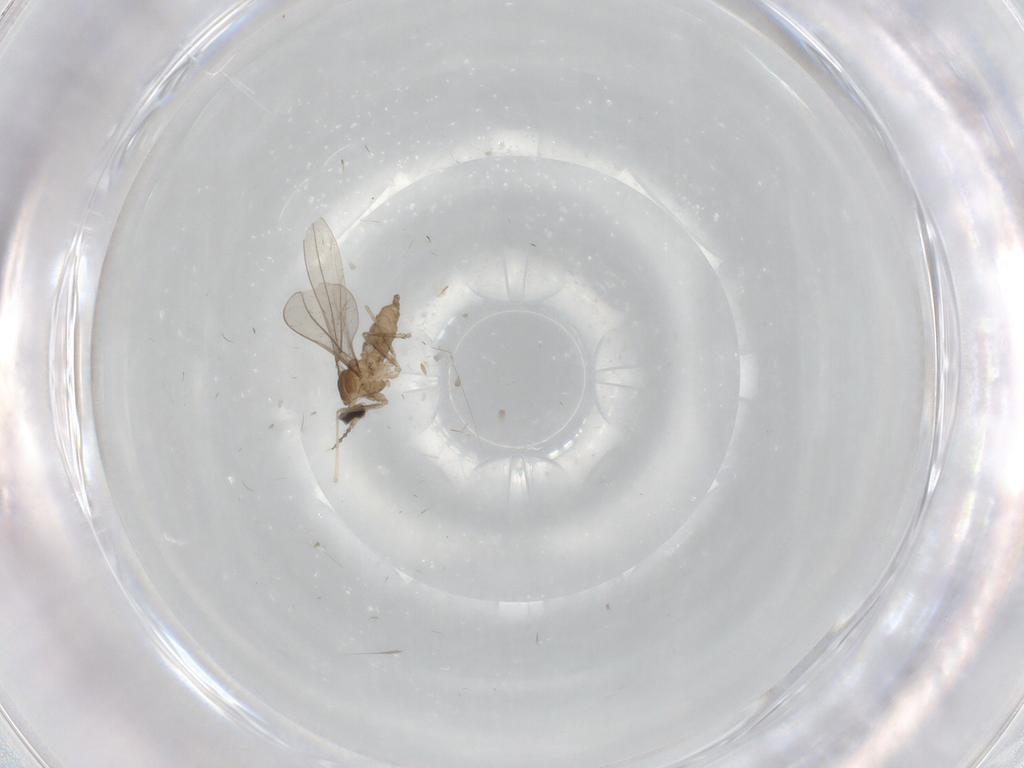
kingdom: Animalia
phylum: Arthropoda
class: Insecta
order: Diptera
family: Cecidomyiidae
